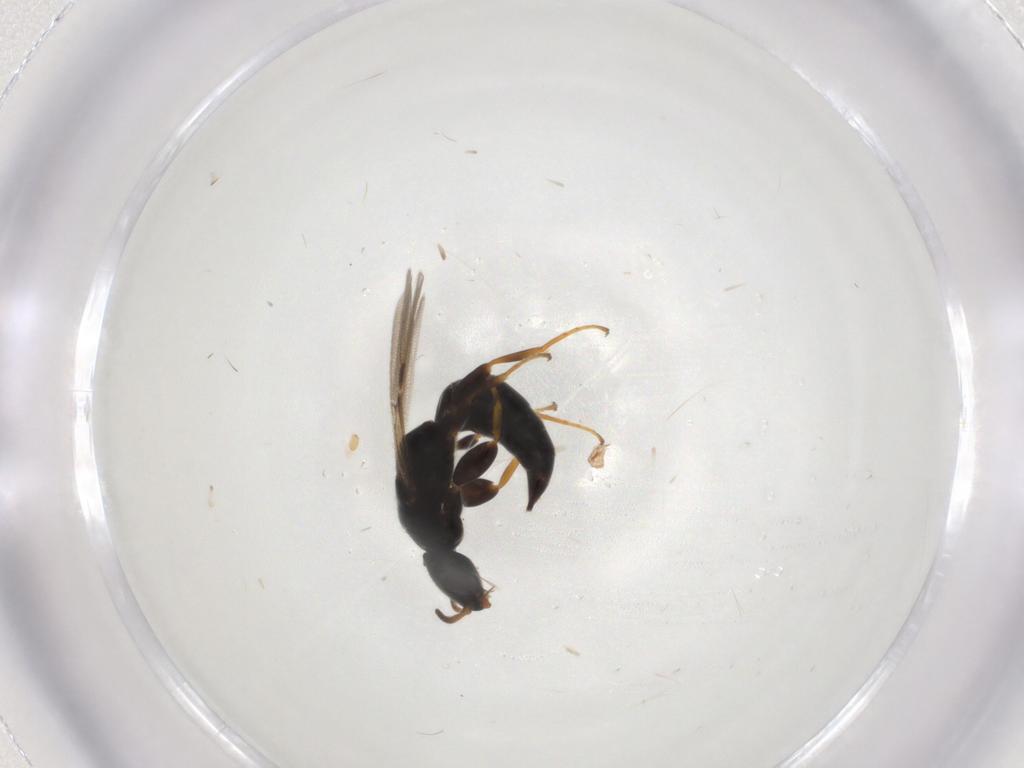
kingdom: Animalia
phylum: Arthropoda
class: Insecta
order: Hymenoptera
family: Bethylidae
